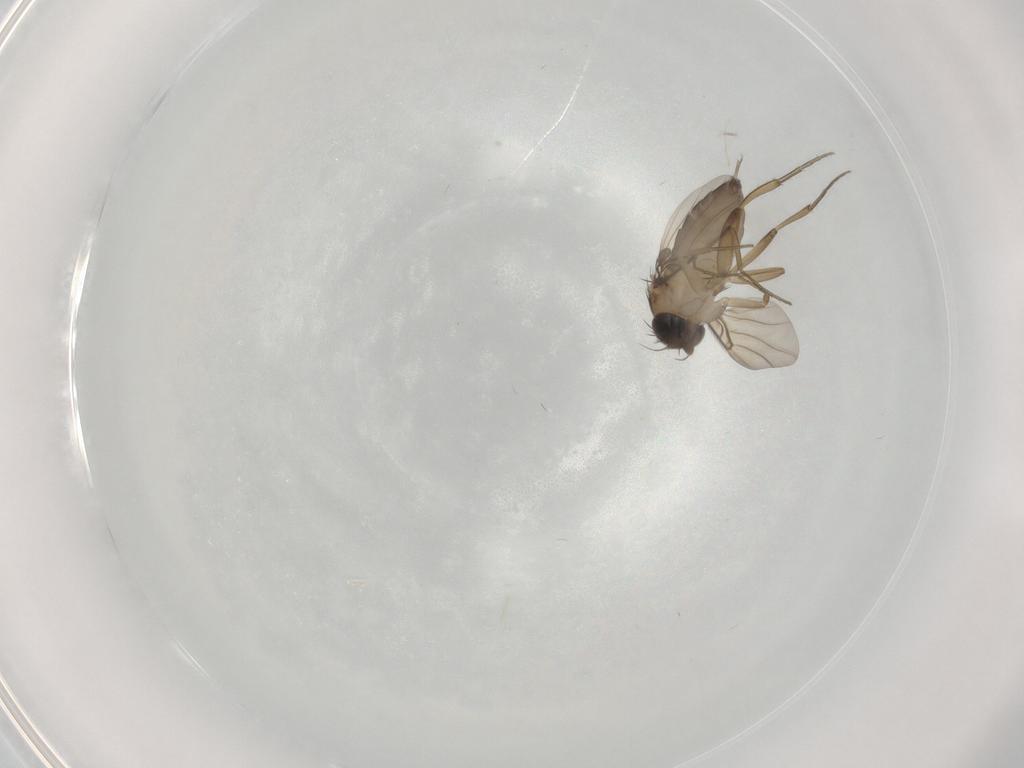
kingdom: Animalia
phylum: Arthropoda
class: Insecta
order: Diptera
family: Phoridae
